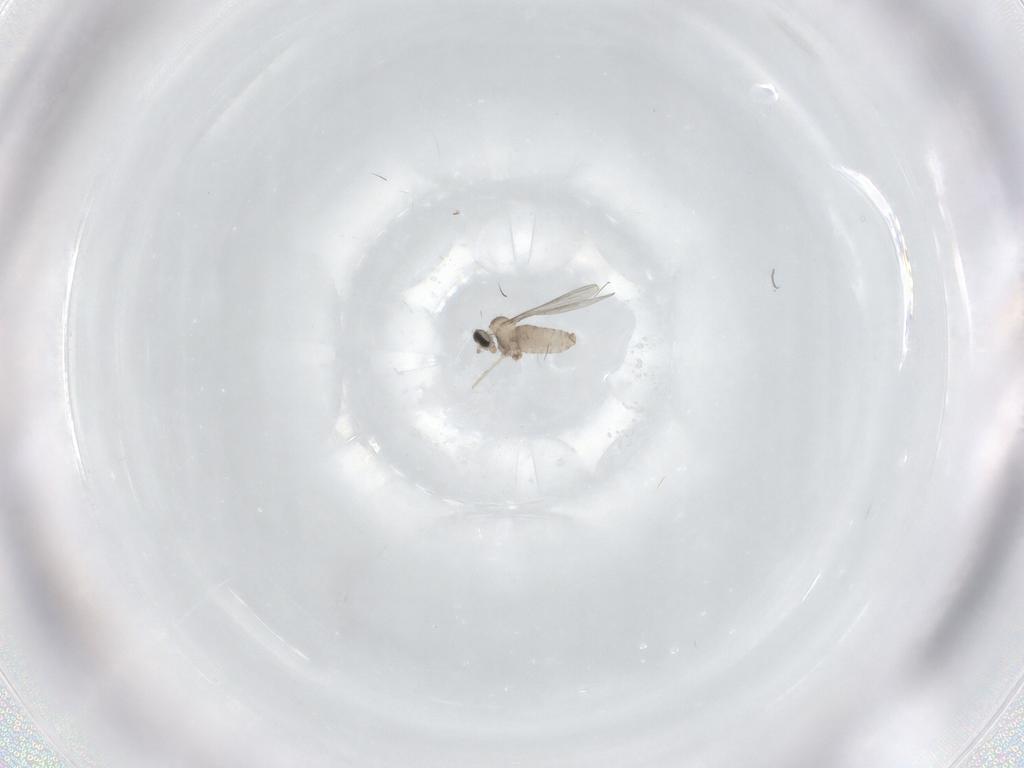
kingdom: Animalia
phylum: Arthropoda
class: Insecta
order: Diptera
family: Cecidomyiidae
